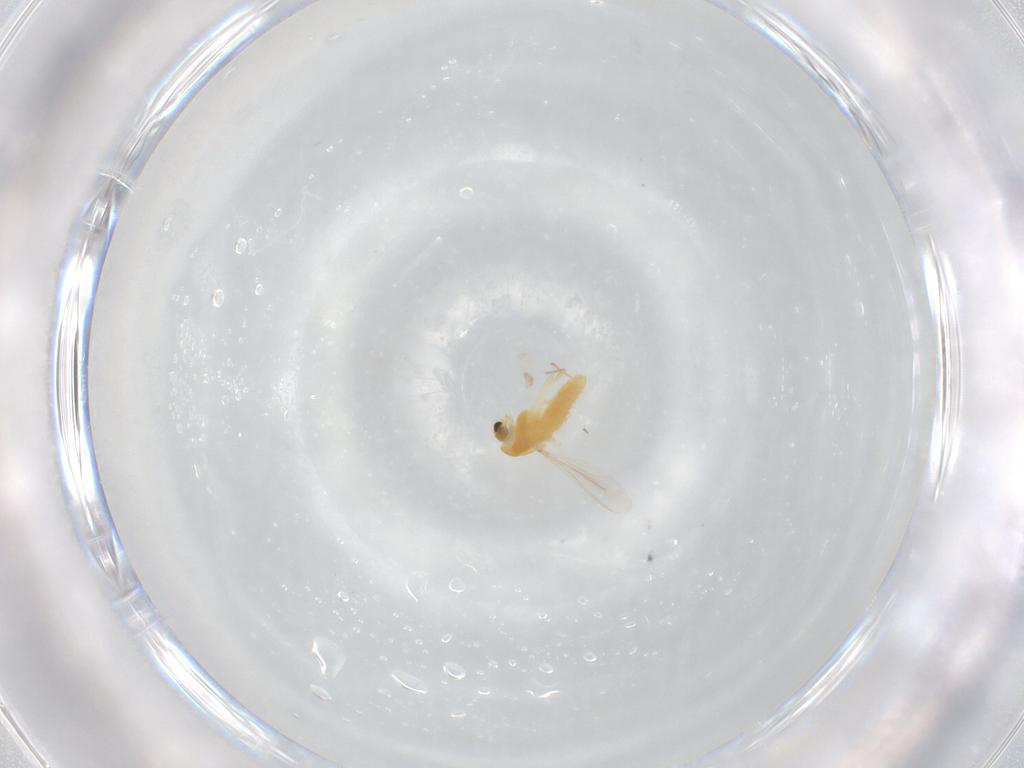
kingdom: Animalia
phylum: Arthropoda
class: Insecta
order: Diptera
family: Chironomidae
